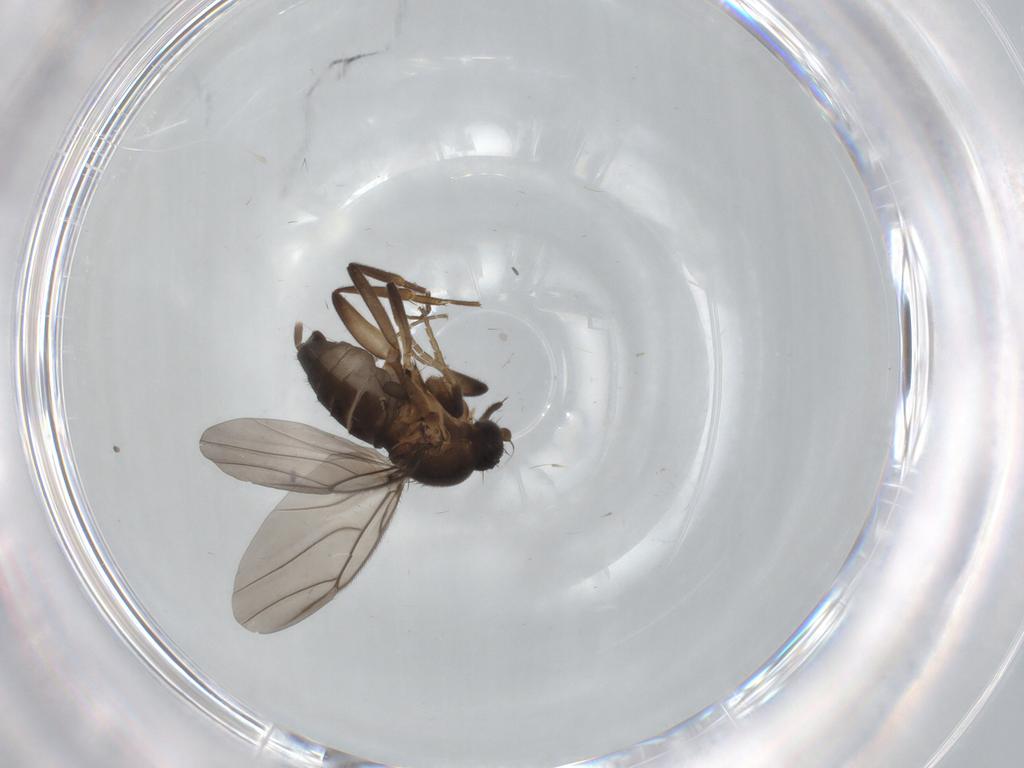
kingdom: Animalia
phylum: Arthropoda
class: Insecta
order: Diptera
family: Phoridae
